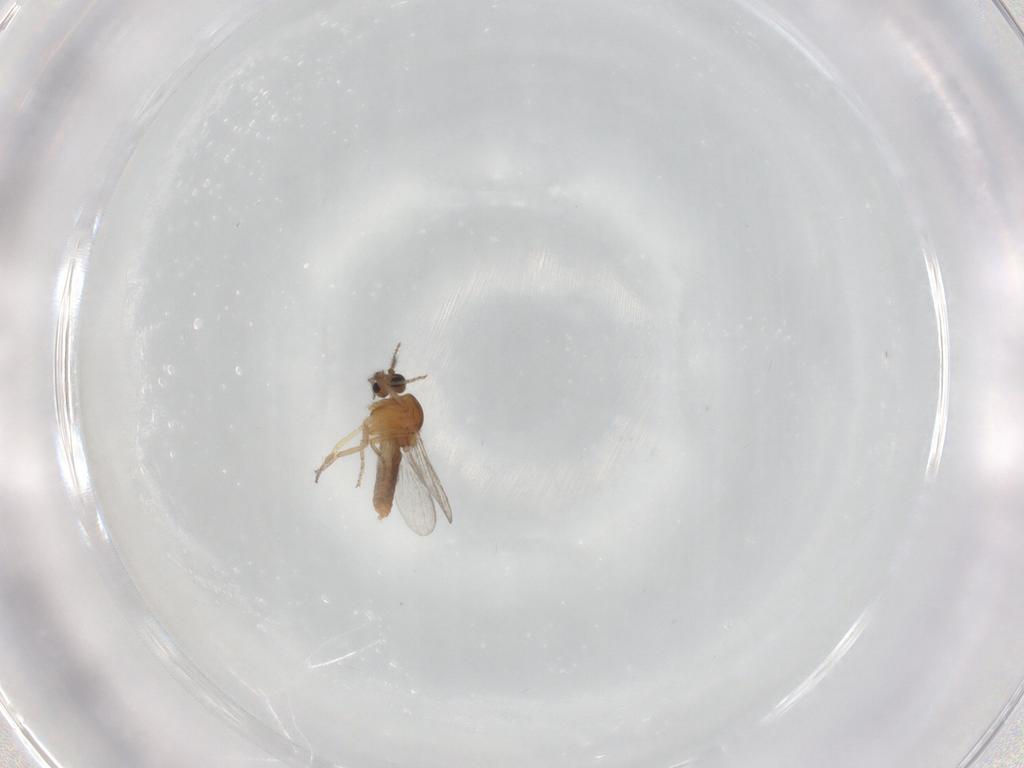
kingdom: Animalia
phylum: Arthropoda
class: Insecta
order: Diptera
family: Ceratopogonidae
